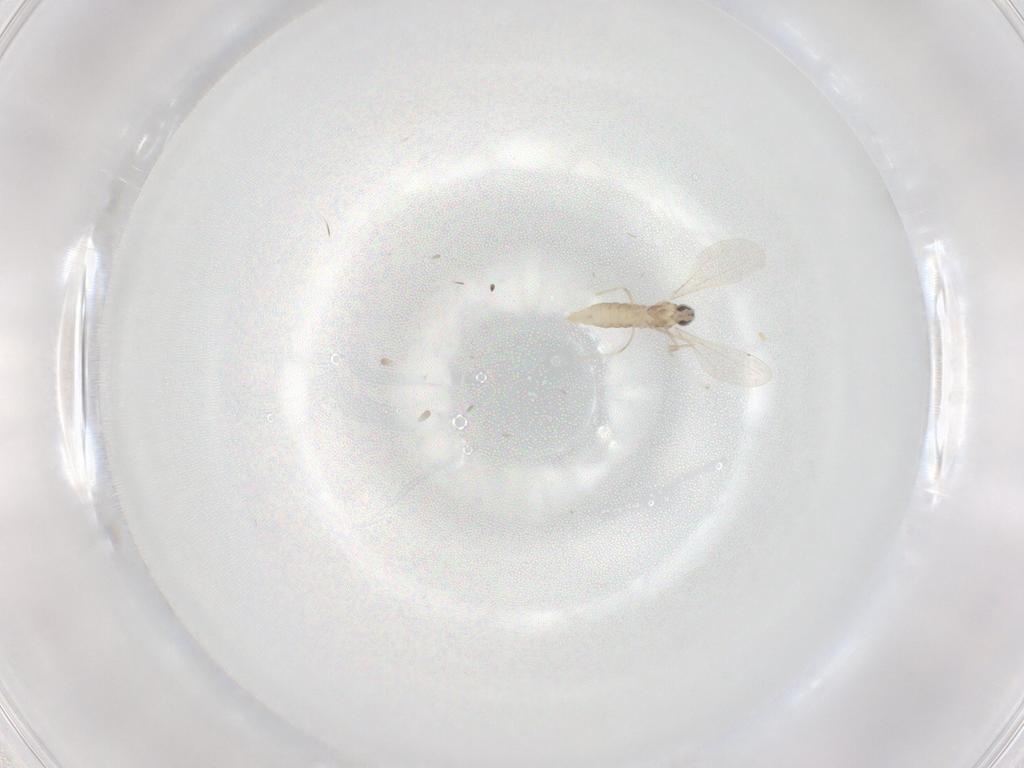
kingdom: Animalia
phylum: Arthropoda
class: Insecta
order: Diptera
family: Cecidomyiidae
